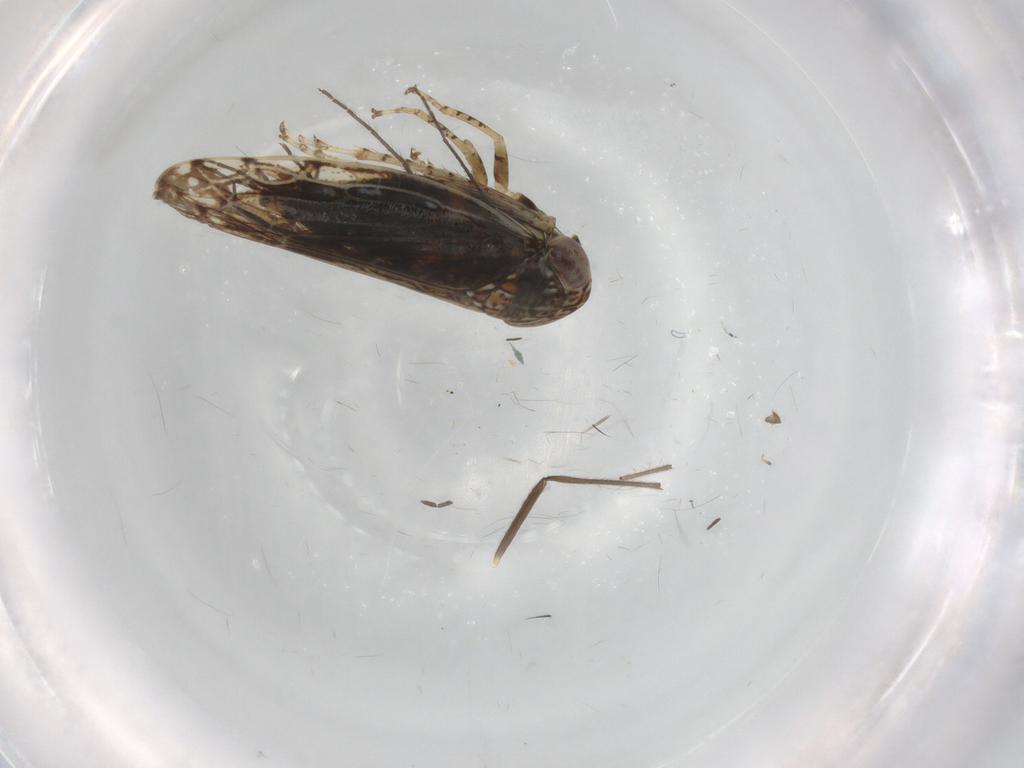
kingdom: Animalia
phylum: Arthropoda
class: Insecta
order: Hemiptera
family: Cicadellidae
